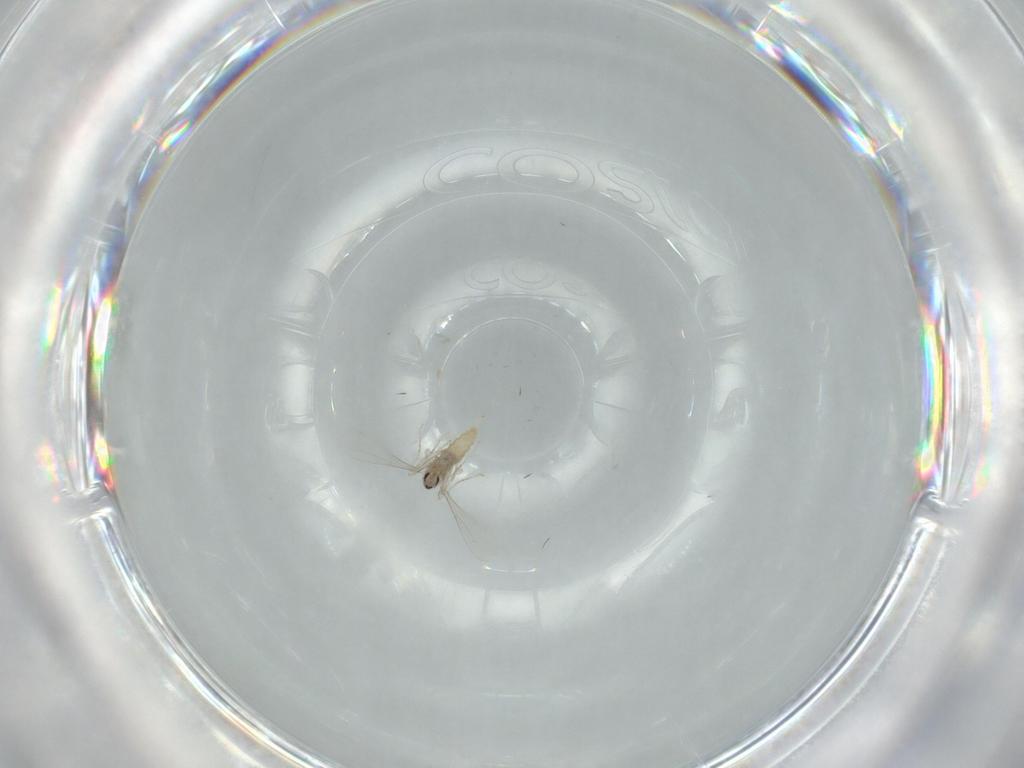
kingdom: Animalia
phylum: Arthropoda
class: Insecta
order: Diptera
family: Cecidomyiidae
